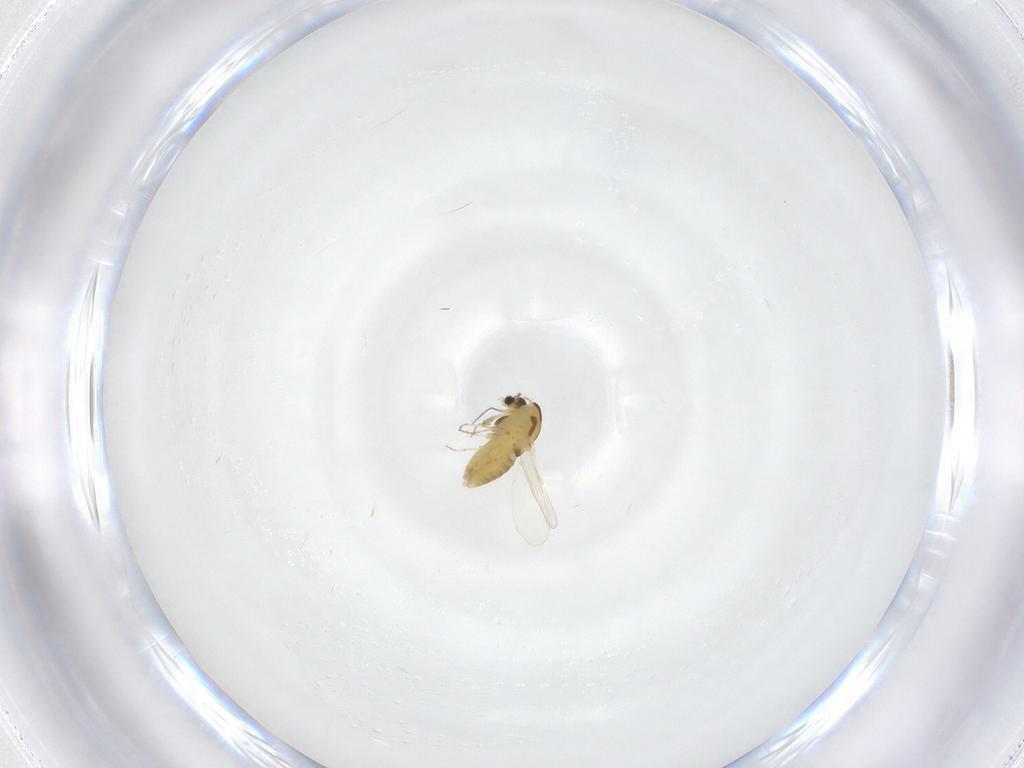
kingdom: Animalia
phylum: Arthropoda
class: Insecta
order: Diptera
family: Chironomidae
